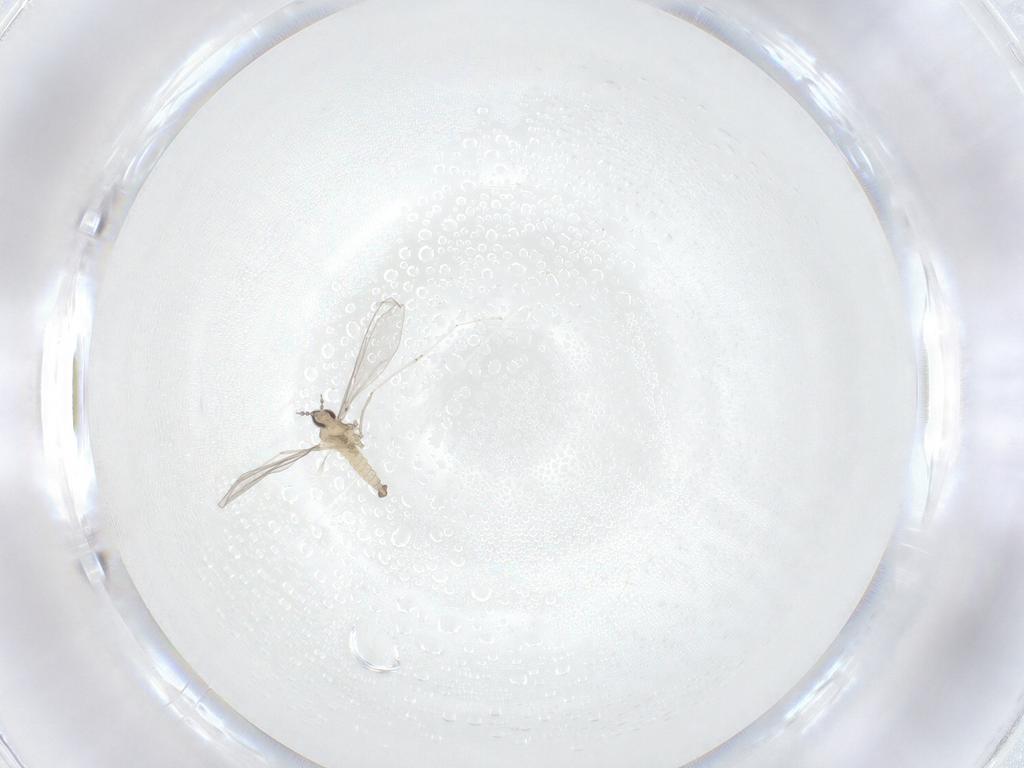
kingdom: Animalia
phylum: Arthropoda
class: Insecta
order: Diptera
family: Cecidomyiidae
